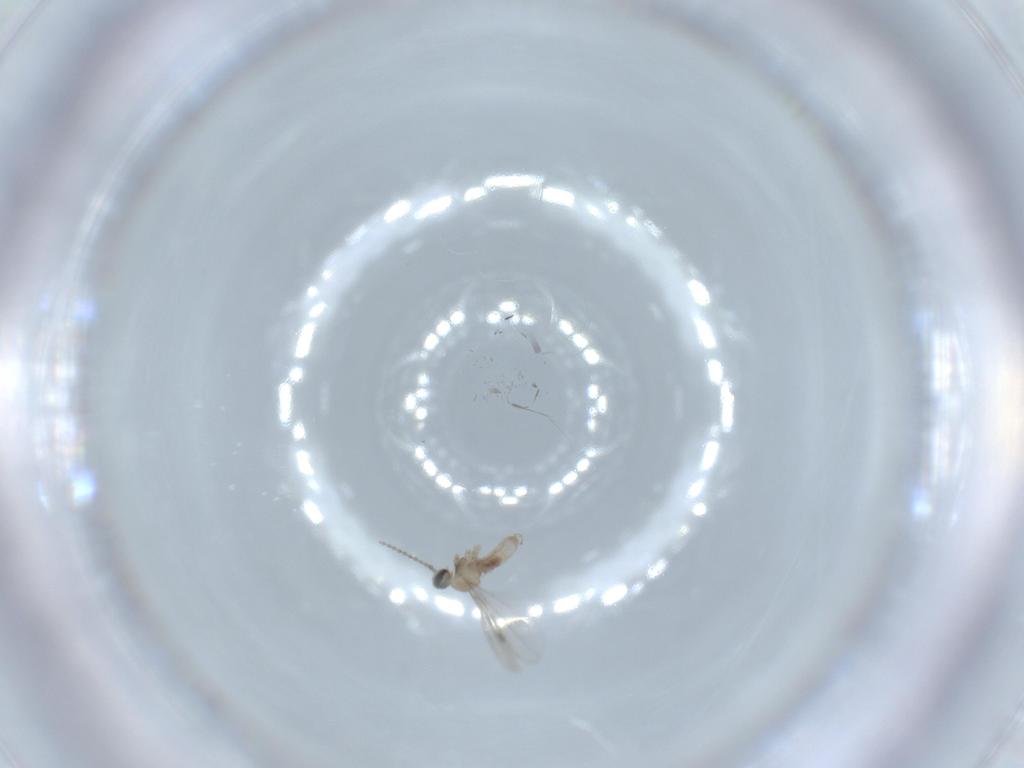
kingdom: Animalia
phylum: Arthropoda
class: Insecta
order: Diptera
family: Cecidomyiidae
